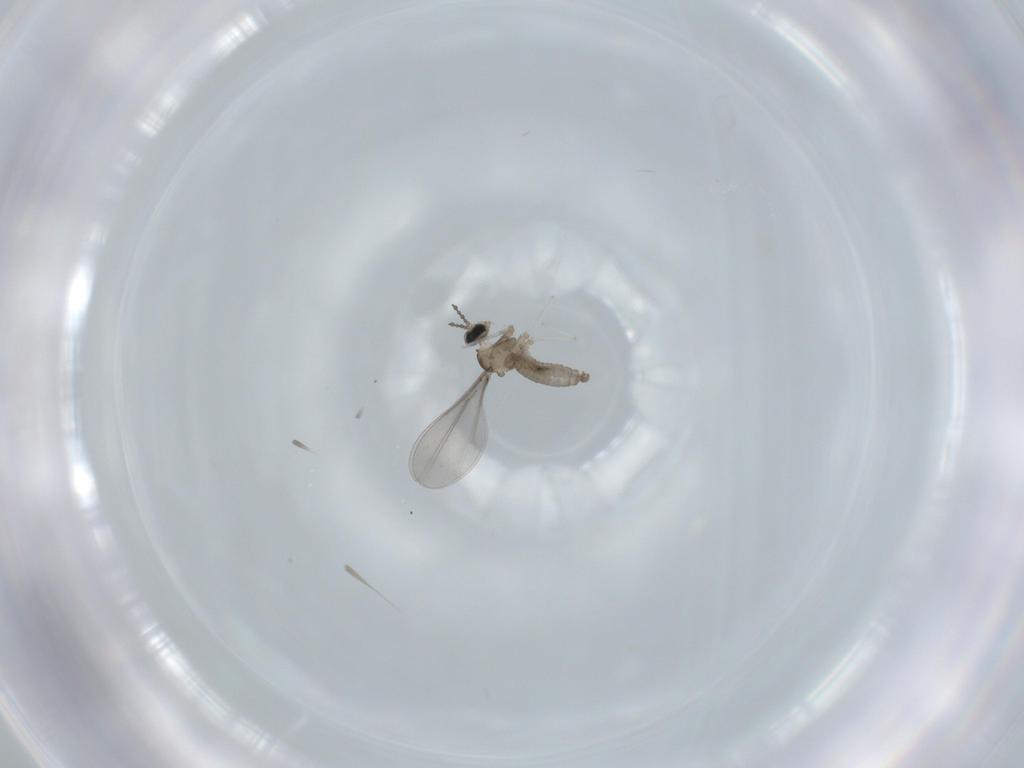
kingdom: Animalia
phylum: Arthropoda
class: Insecta
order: Diptera
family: Cecidomyiidae
